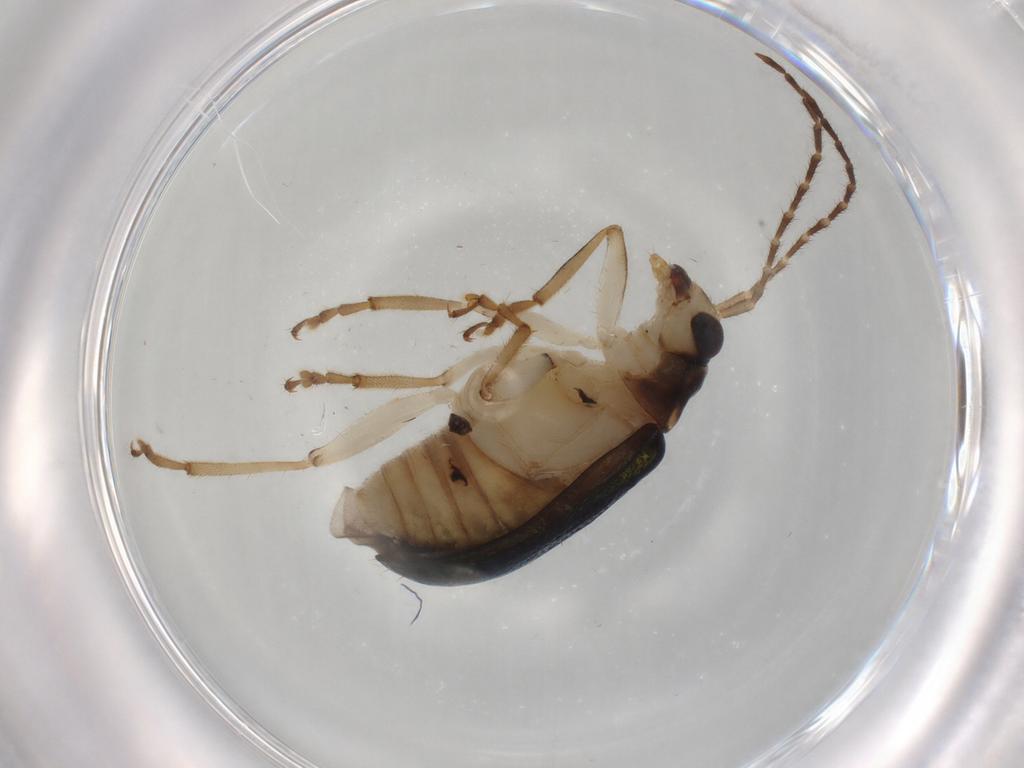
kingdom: Animalia
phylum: Arthropoda
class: Insecta
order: Coleoptera
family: Chrysomelidae
